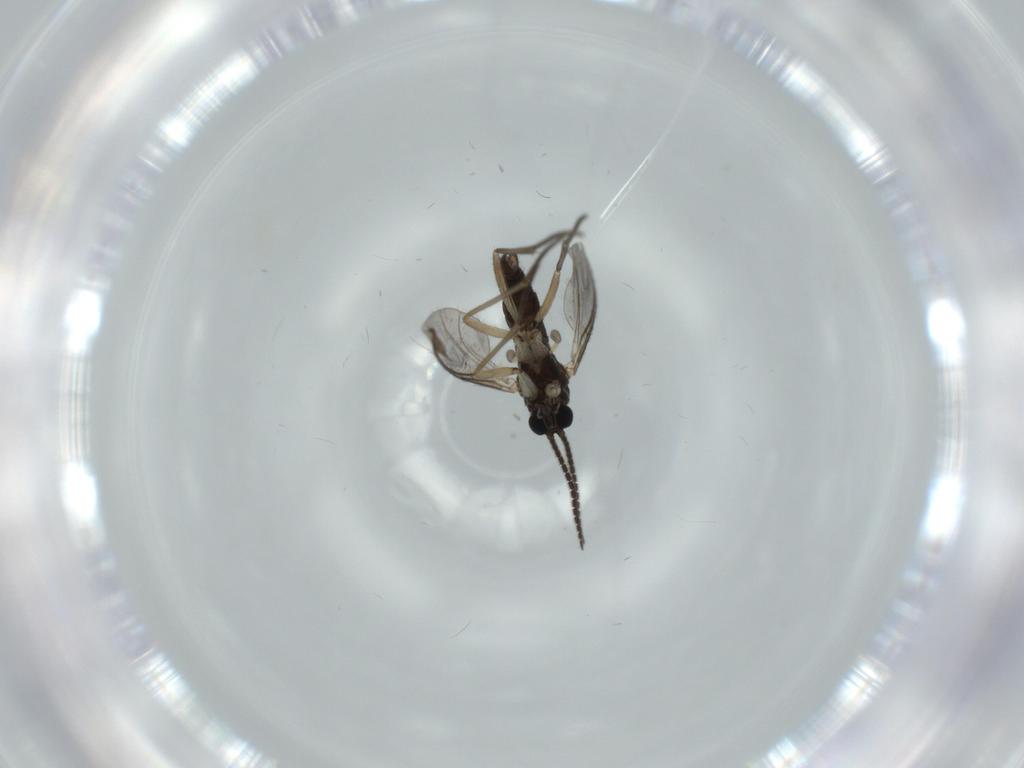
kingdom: Animalia
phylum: Arthropoda
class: Insecta
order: Diptera
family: Sciaridae
